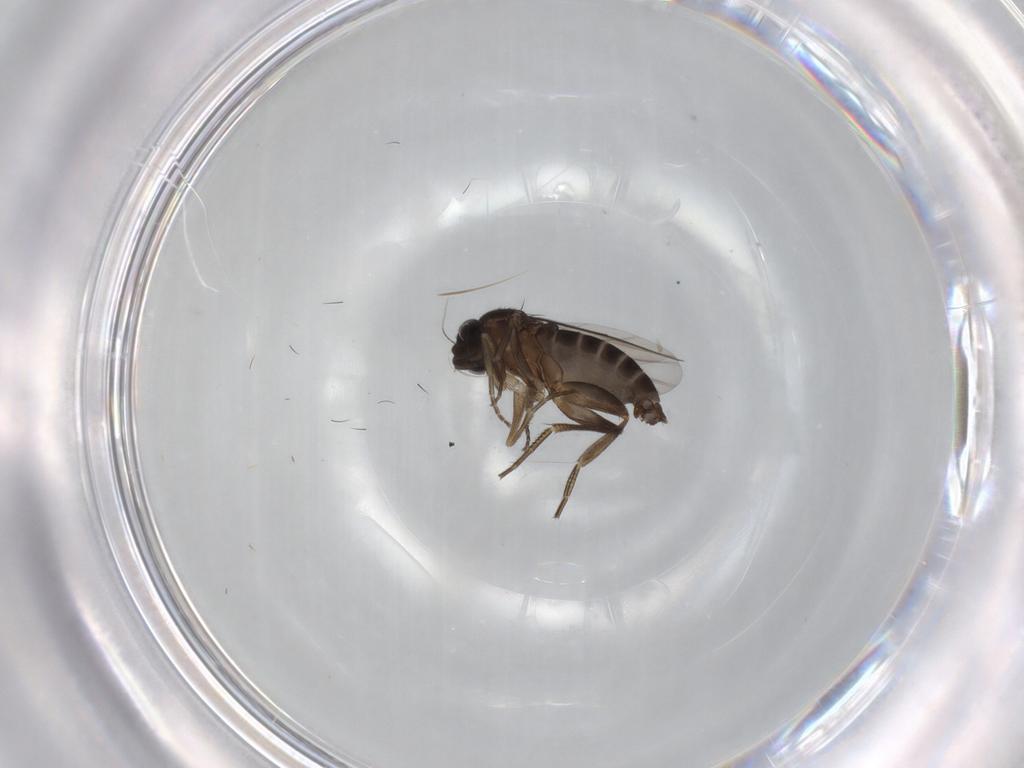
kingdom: Animalia
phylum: Arthropoda
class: Insecta
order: Diptera
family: Phoridae
